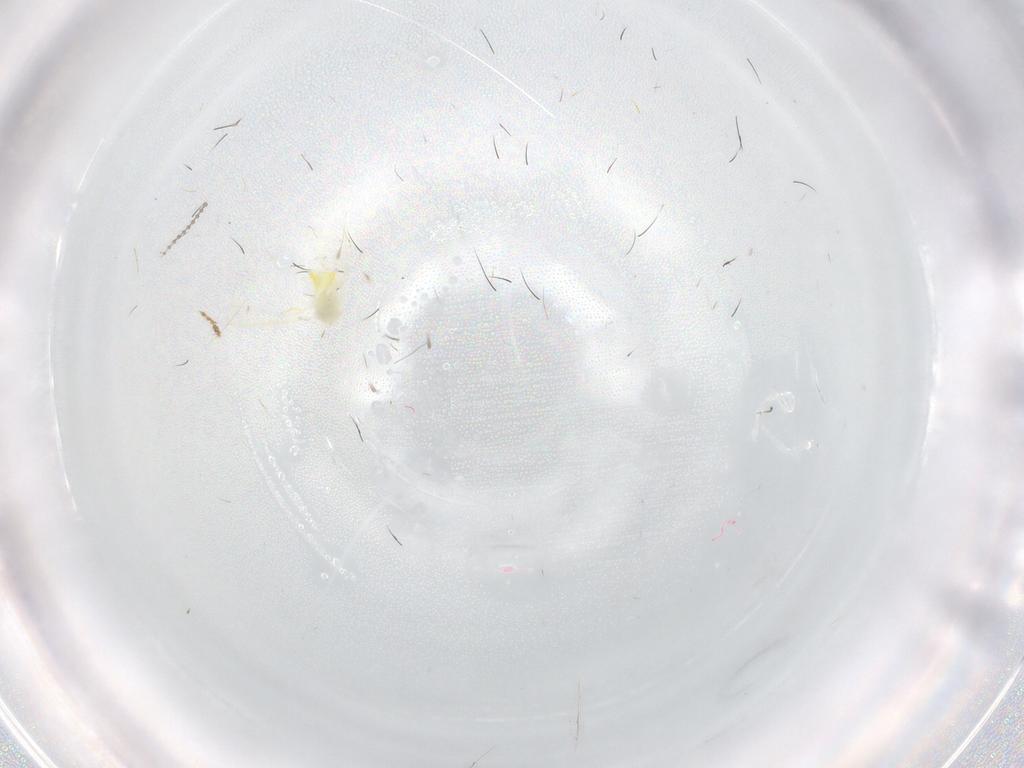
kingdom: Animalia
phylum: Arthropoda
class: Insecta
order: Hemiptera
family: Aleyrodidae
